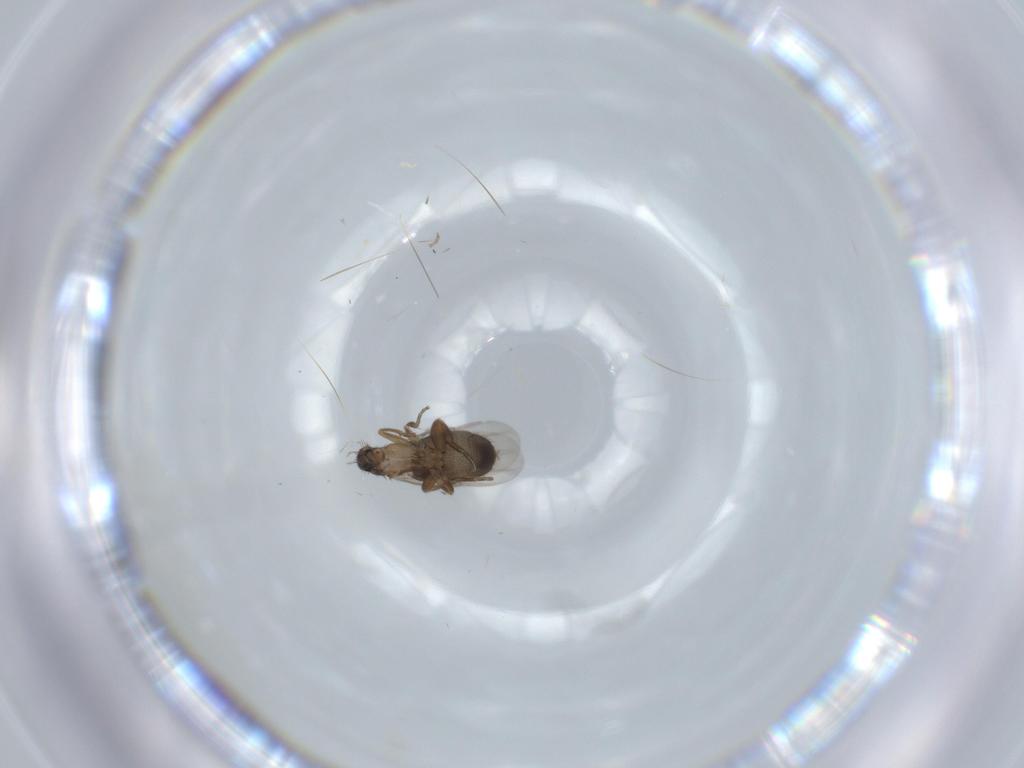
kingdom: Animalia
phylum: Arthropoda
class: Insecta
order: Diptera
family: Phoridae
